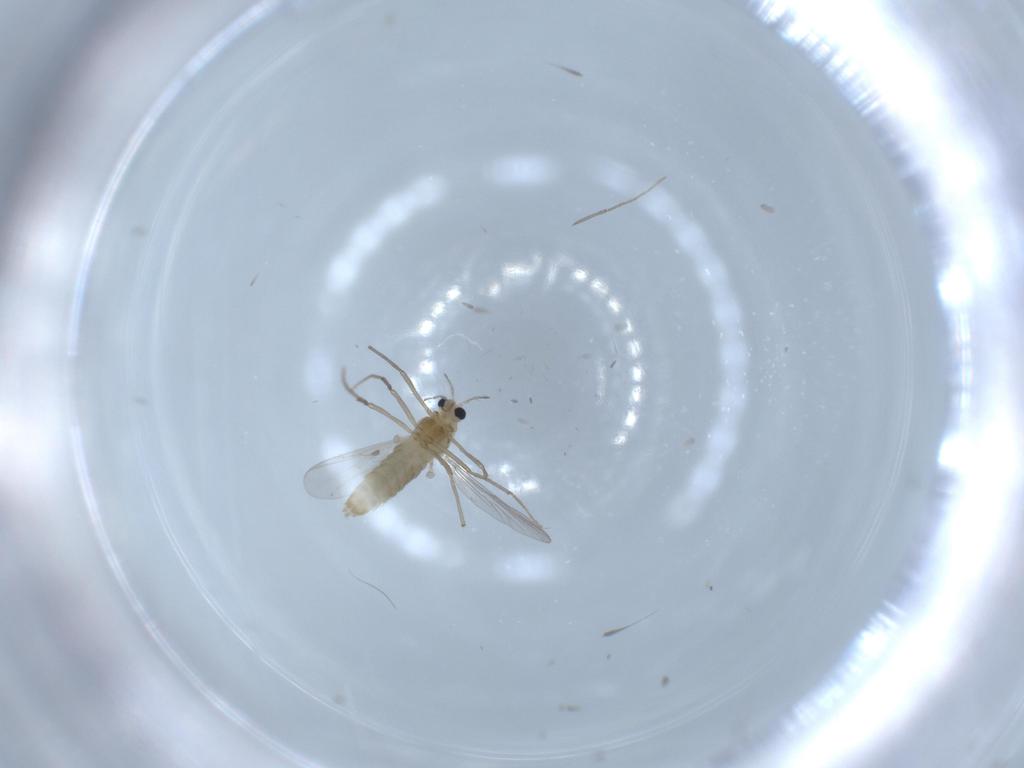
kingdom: Animalia
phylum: Arthropoda
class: Insecta
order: Diptera
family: Chironomidae
